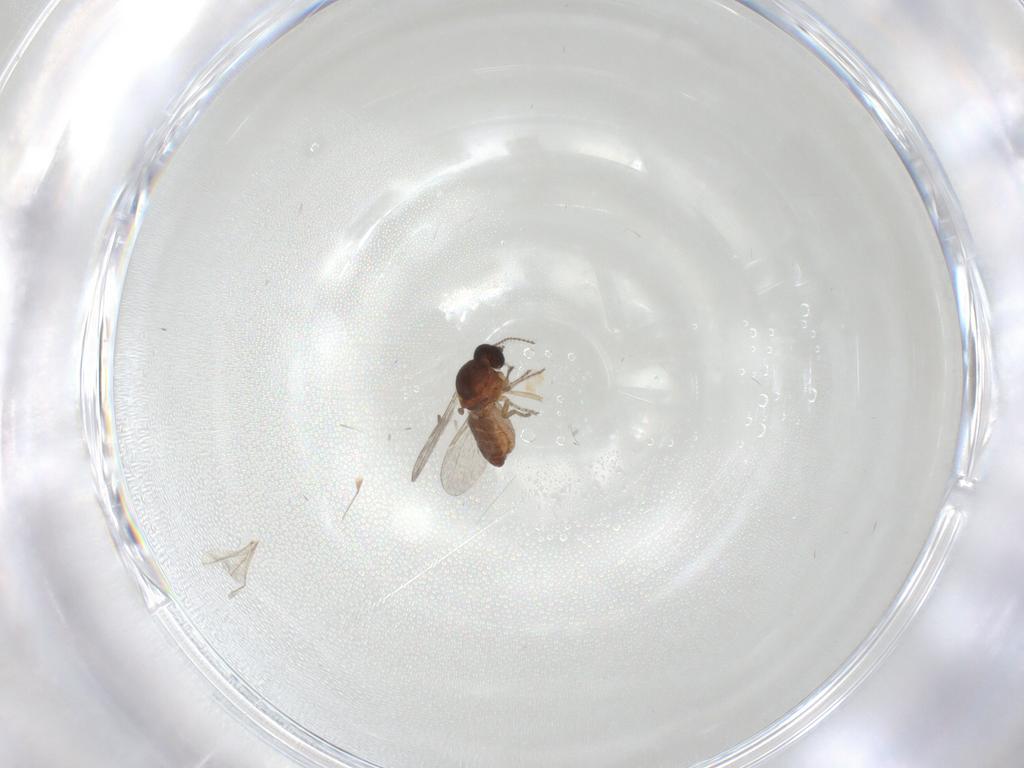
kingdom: Animalia
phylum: Arthropoda
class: Insecta
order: Diptera
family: Ceratopogonidae
